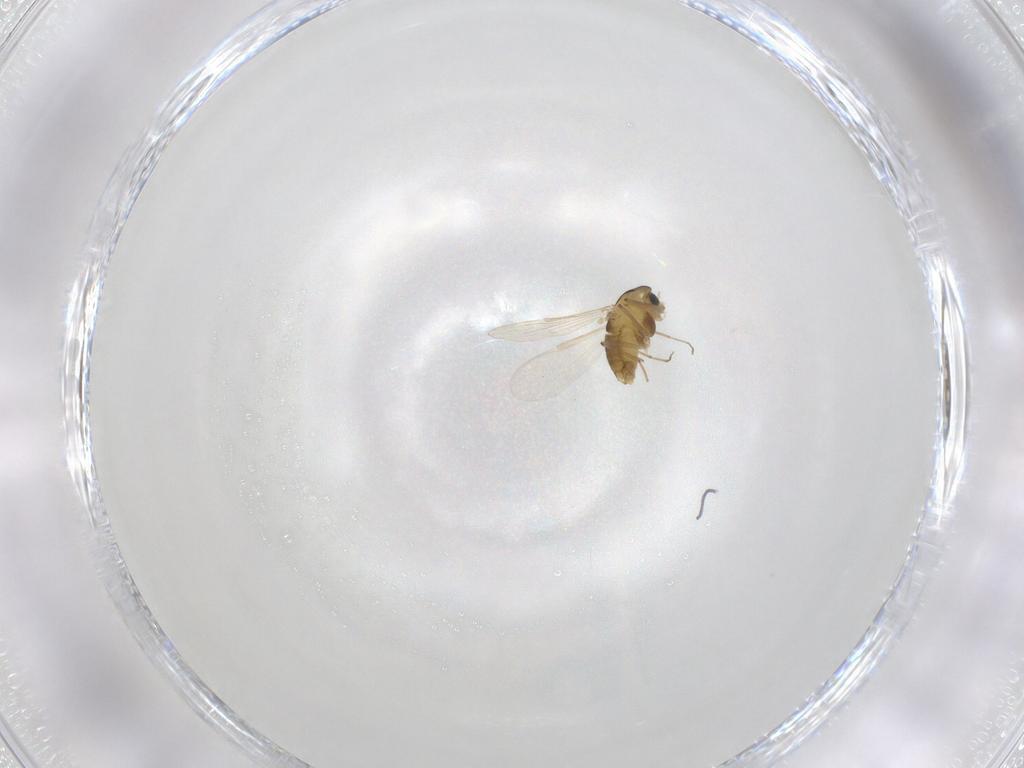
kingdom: Animalia
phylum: Arthropoda
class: Insecta
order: Diptera
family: Chironomidae
